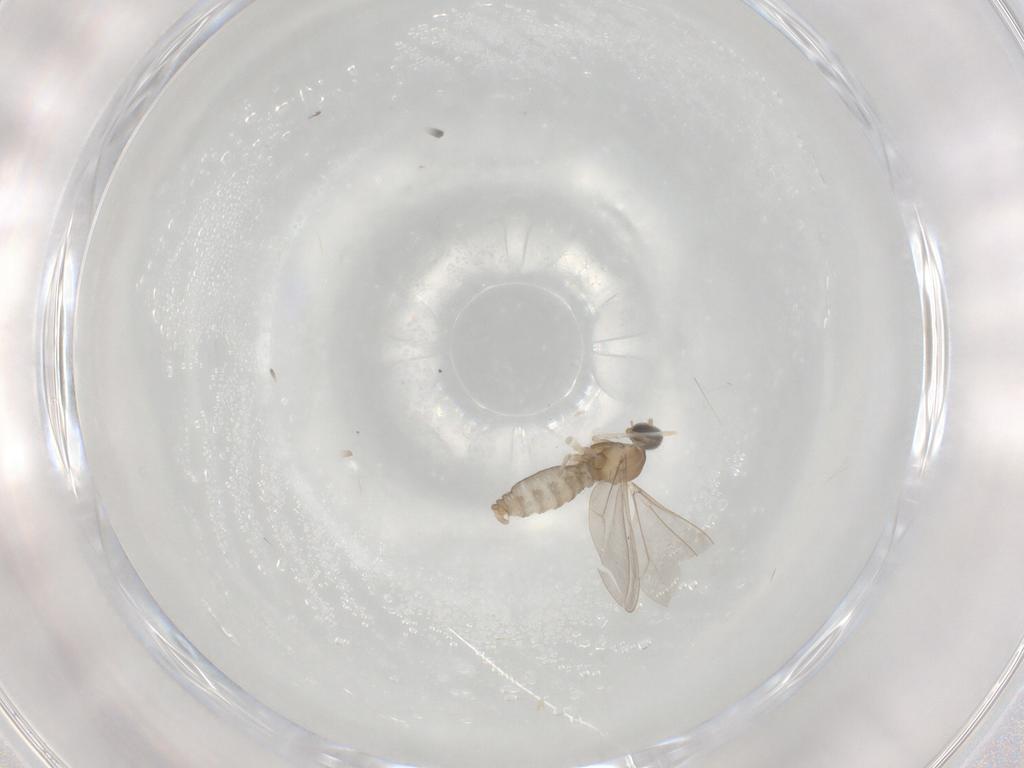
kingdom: Animalia
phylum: Arthropoda
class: Insecta
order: Diptera
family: Cecidomyiidae
